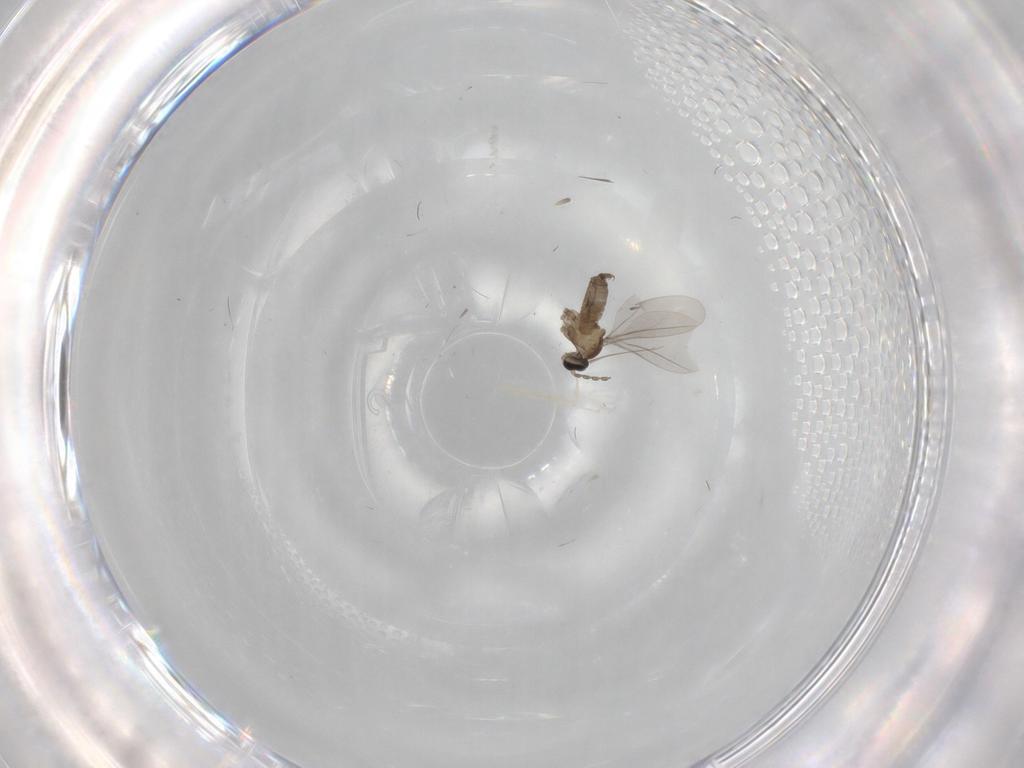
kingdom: Animalia
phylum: Arthropoda
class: Insecta
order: Diptera
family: Cecidomyiidae
